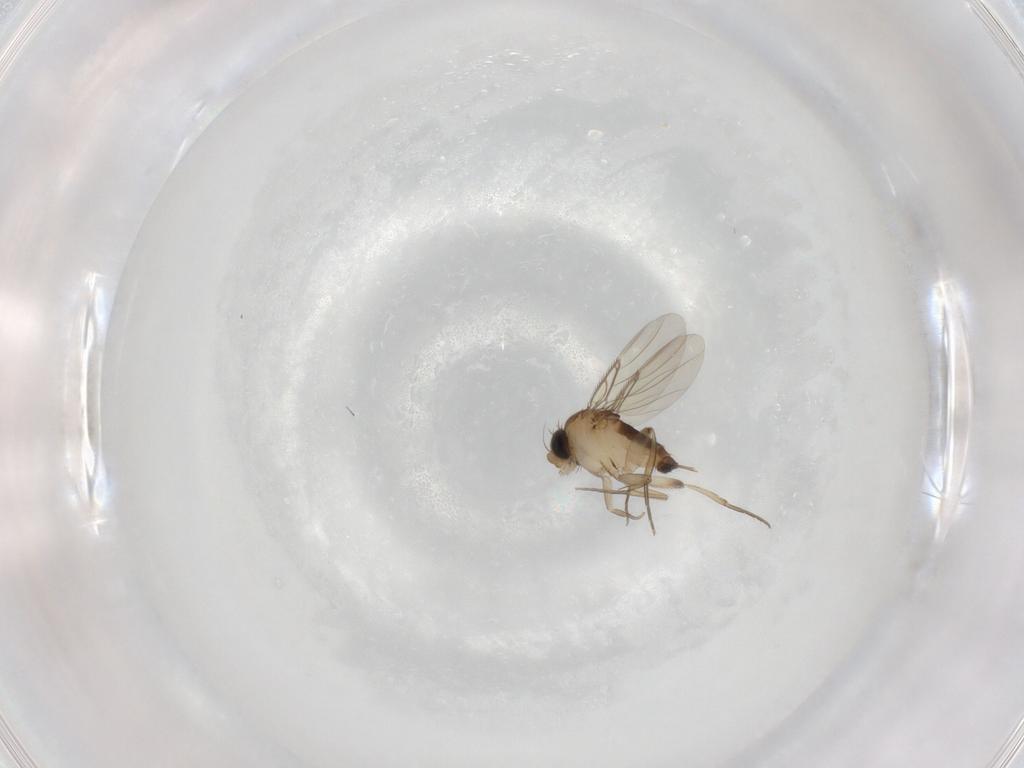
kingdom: Animalia
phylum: Arthropoda
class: Insecta
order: Diptera
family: Phoridae
